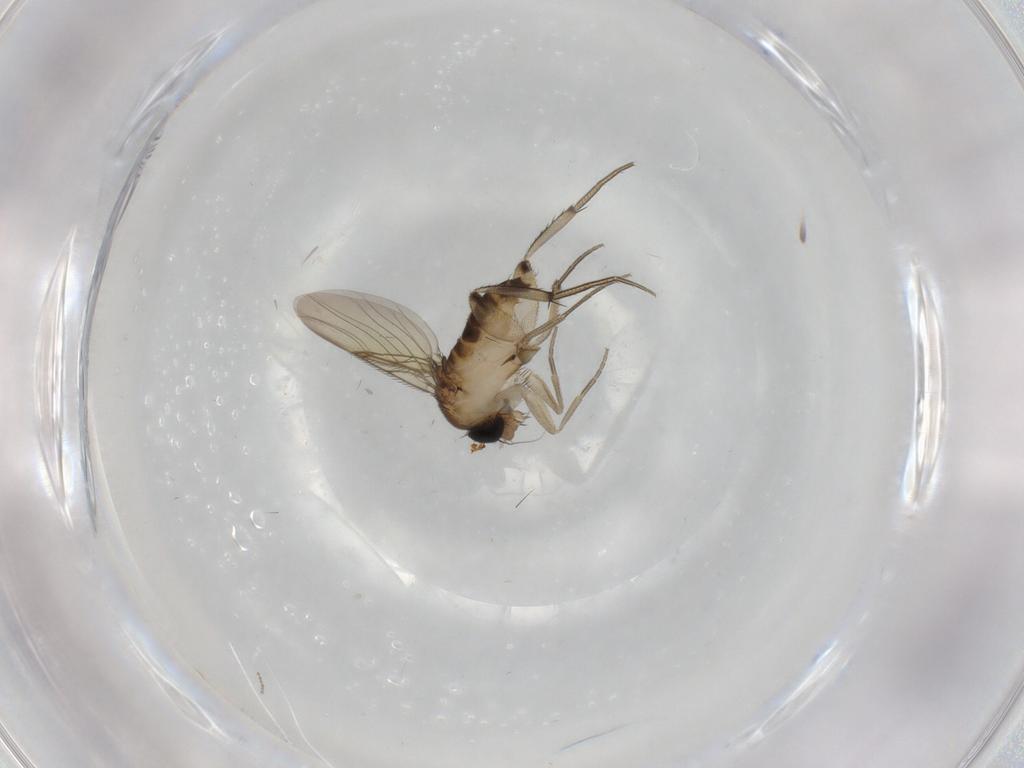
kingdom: Animalia
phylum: Arthropoda
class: Insecta
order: Diptera
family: Phoridae
